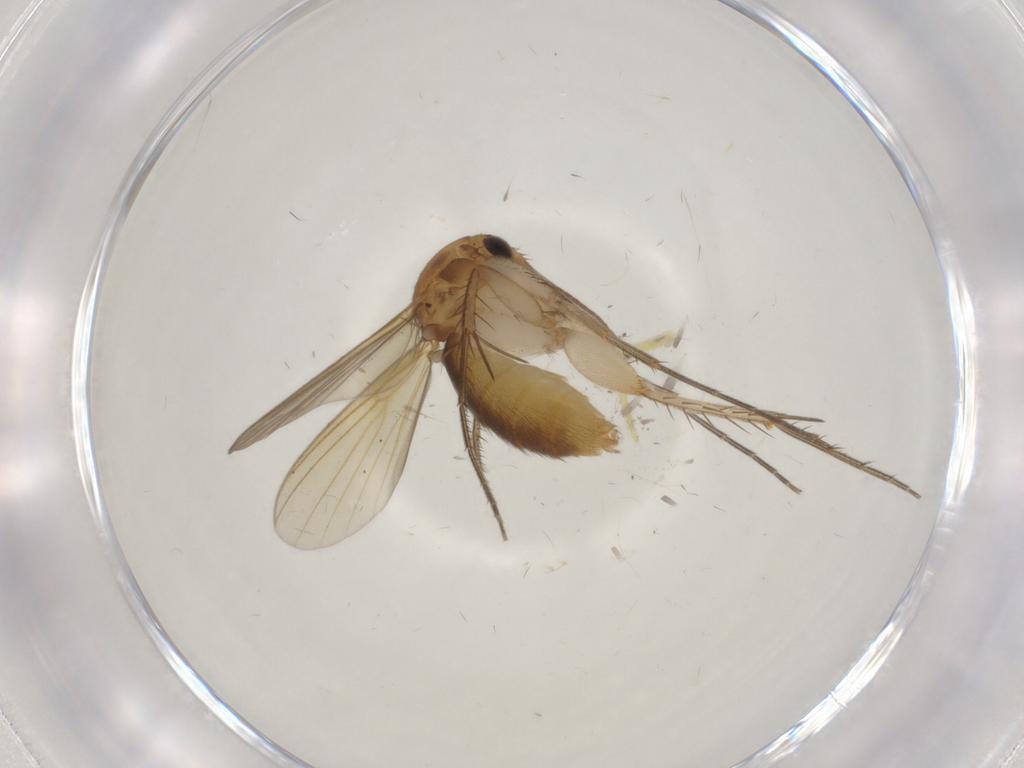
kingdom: Animalia
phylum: Arthropoda
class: Insecta
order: Diptera
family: Mycetophilidae
